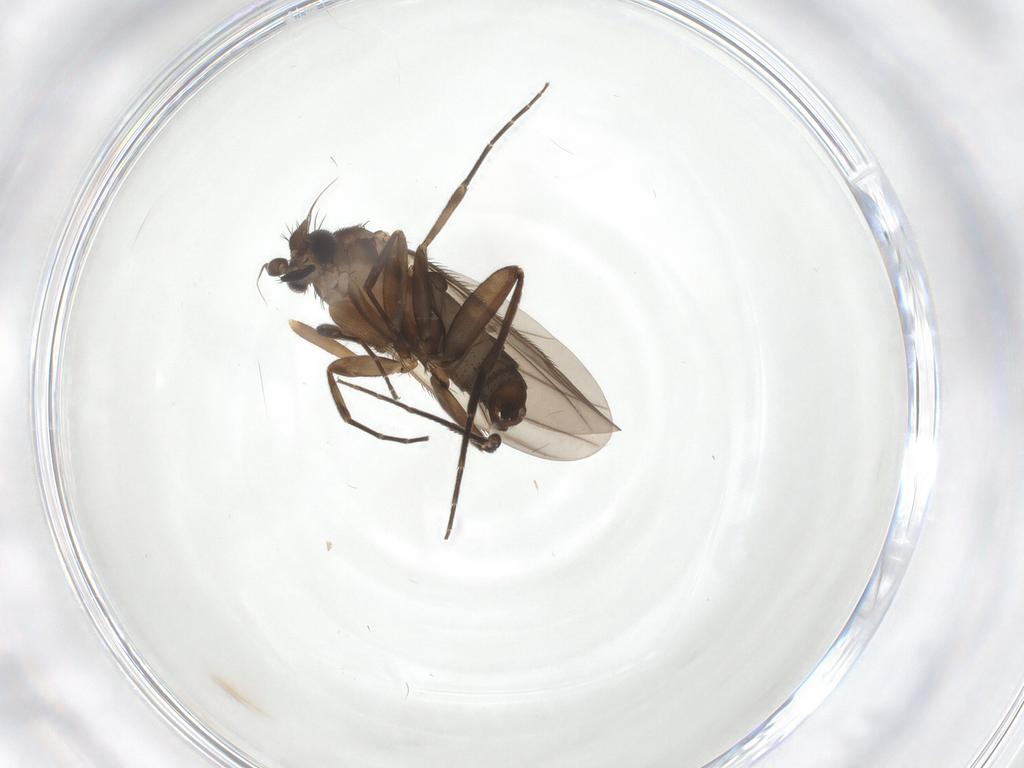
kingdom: Animalia
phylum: Arthropoda
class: Insecta
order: Diptera
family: Phoridae
